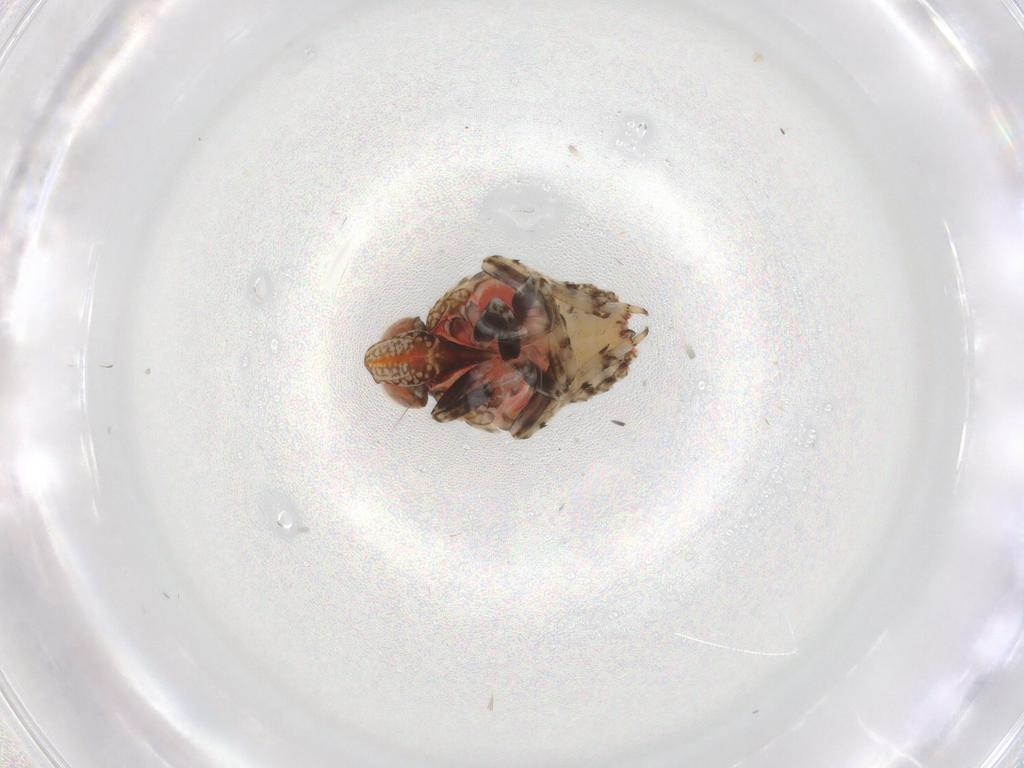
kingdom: Animalia
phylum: Arthropoda
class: Insecta
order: Hemiptera
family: Issidae
